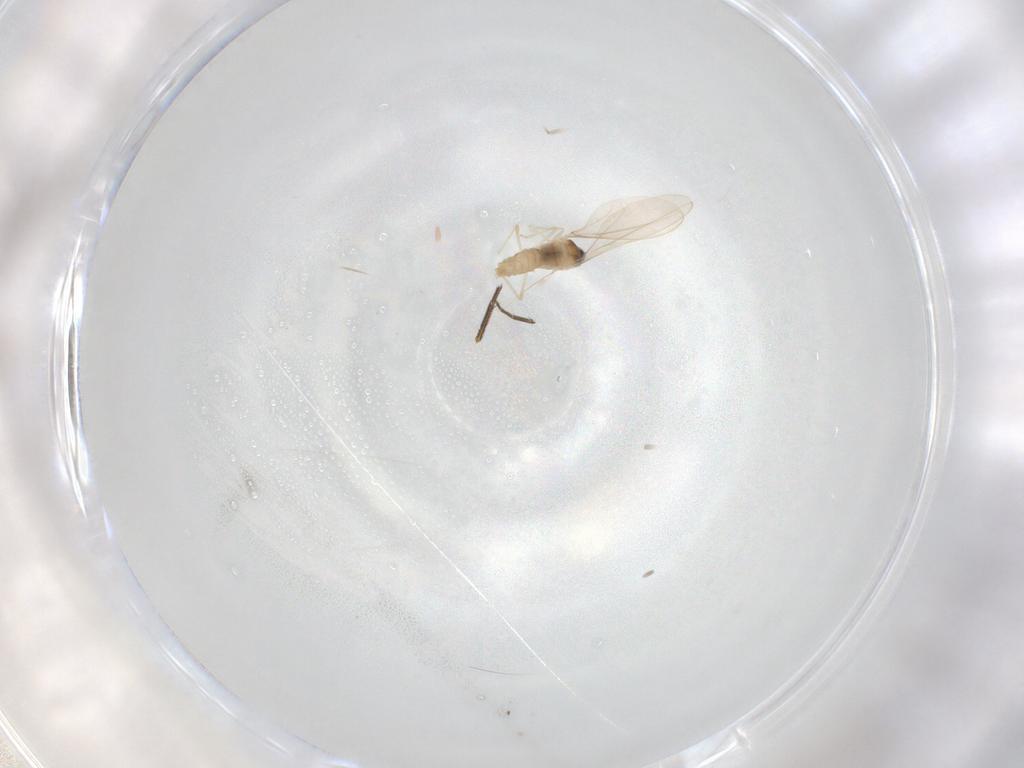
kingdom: Animalia
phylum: Arthropoda
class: Insecta
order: Diptera
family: Phoridae
